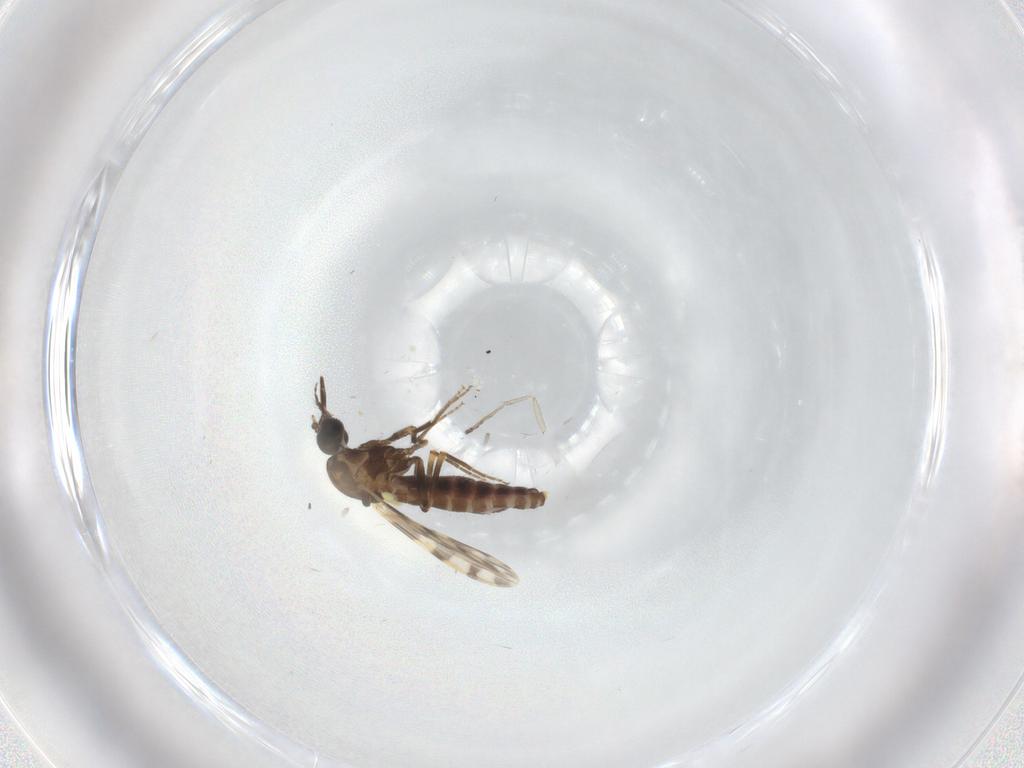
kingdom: Animalia
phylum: Arthropoda
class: Insecta
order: Diptera
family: Ceratopogonidae
